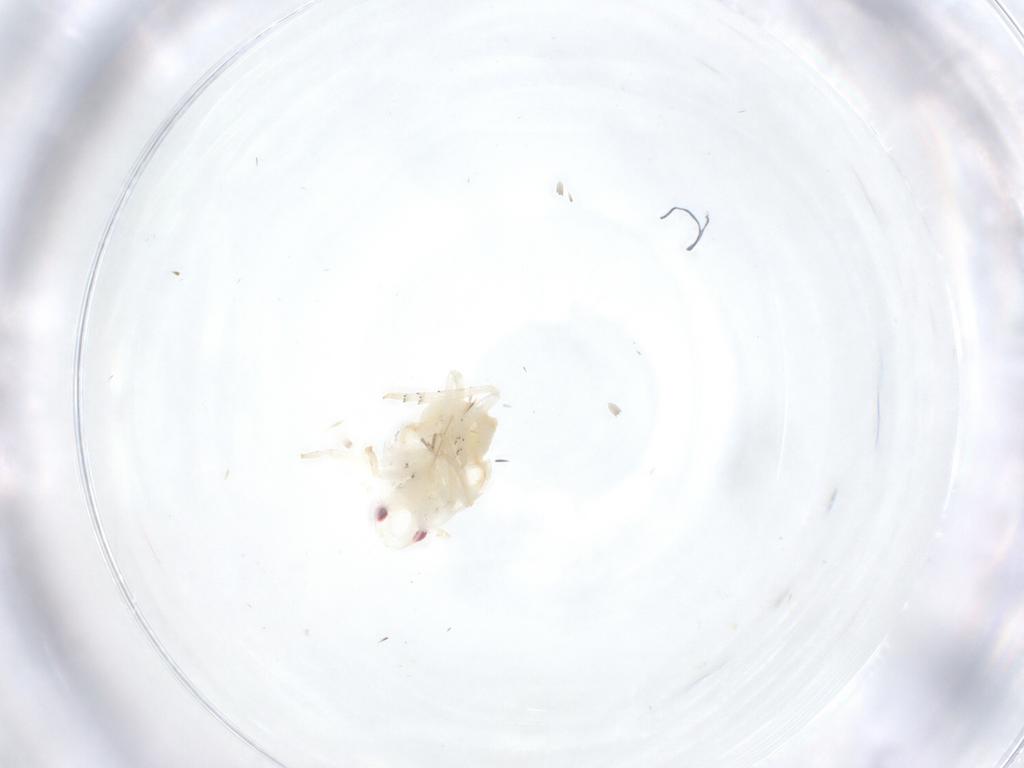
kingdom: Animalia
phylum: Arthropoda
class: Insecta
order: Hemiptera
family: Fulgoroidea_incertae_sedis
